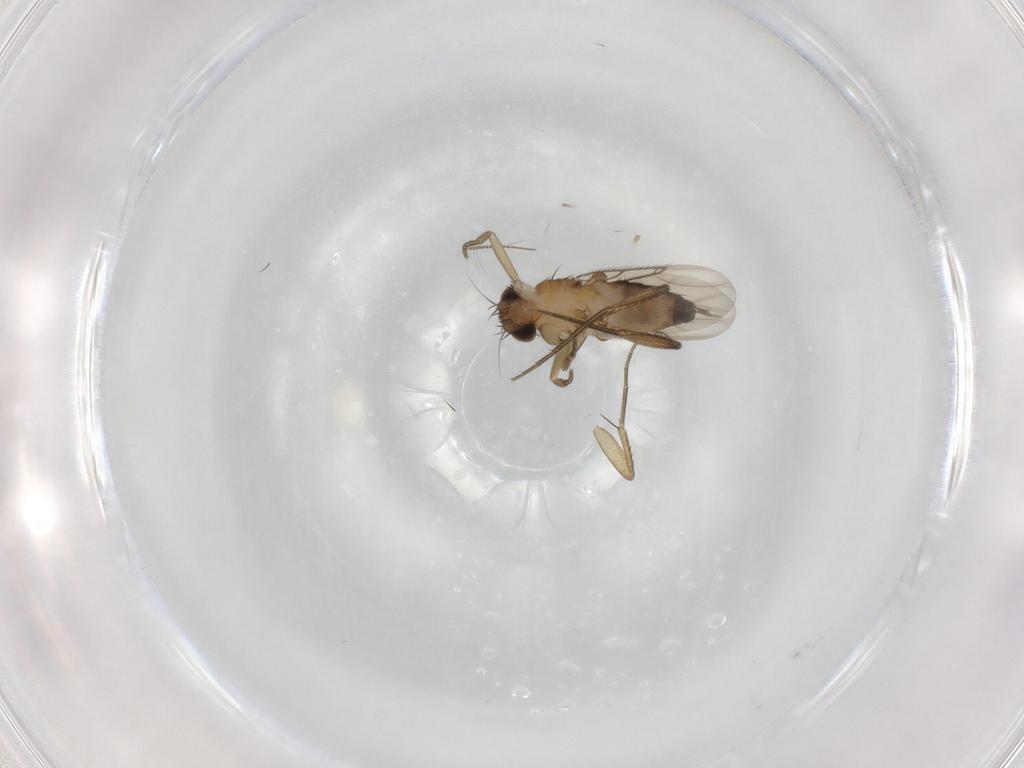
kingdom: Animalia
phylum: Arthropoda
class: Insecta
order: Diptera
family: Phoridae
